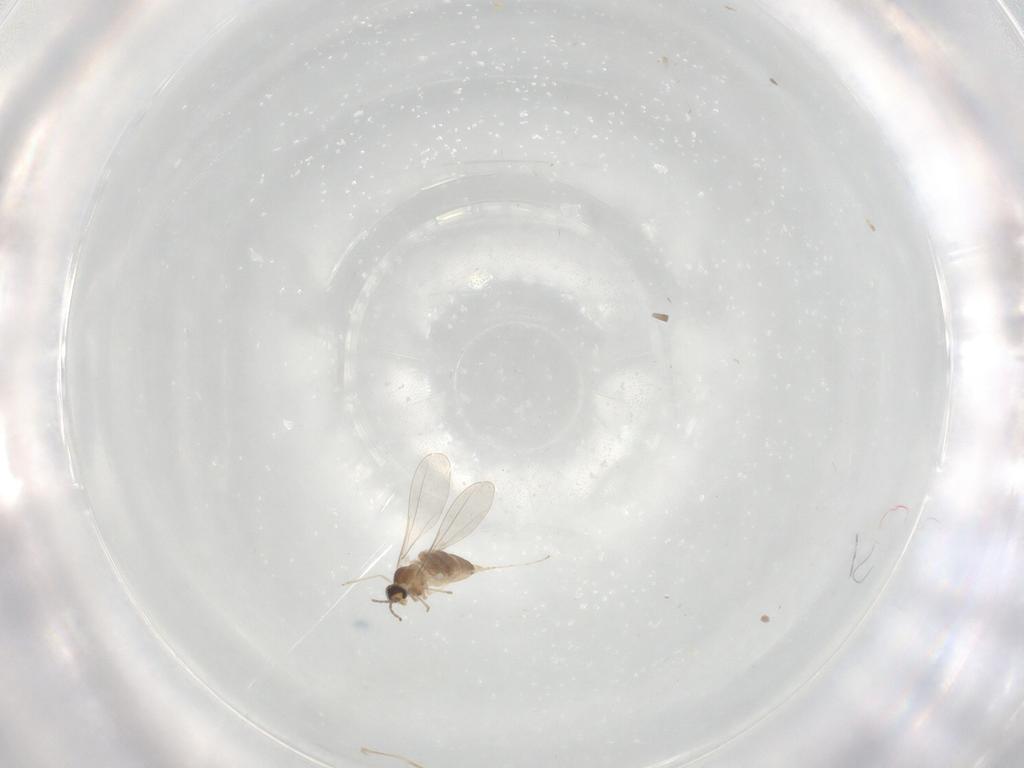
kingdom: Animalia
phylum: Arthropoda
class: Insecta
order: Diptera
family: Cecidomyiidae
